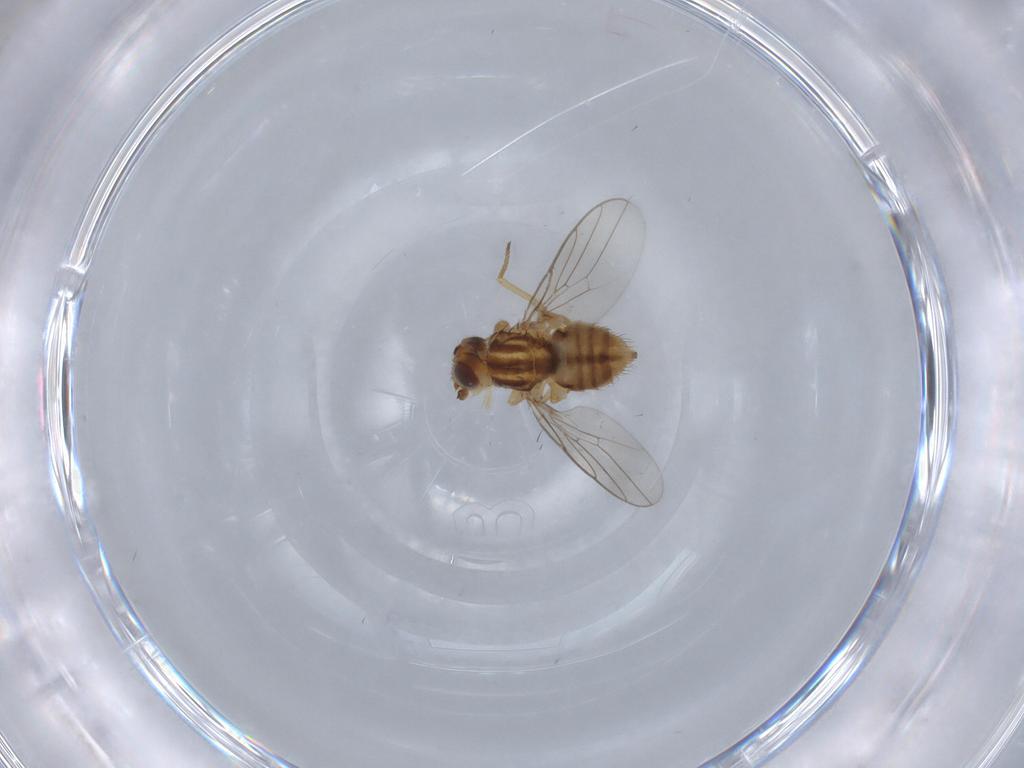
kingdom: Animalia
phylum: Arthropoda
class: Insecta
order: Diptera
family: Chloropidae
